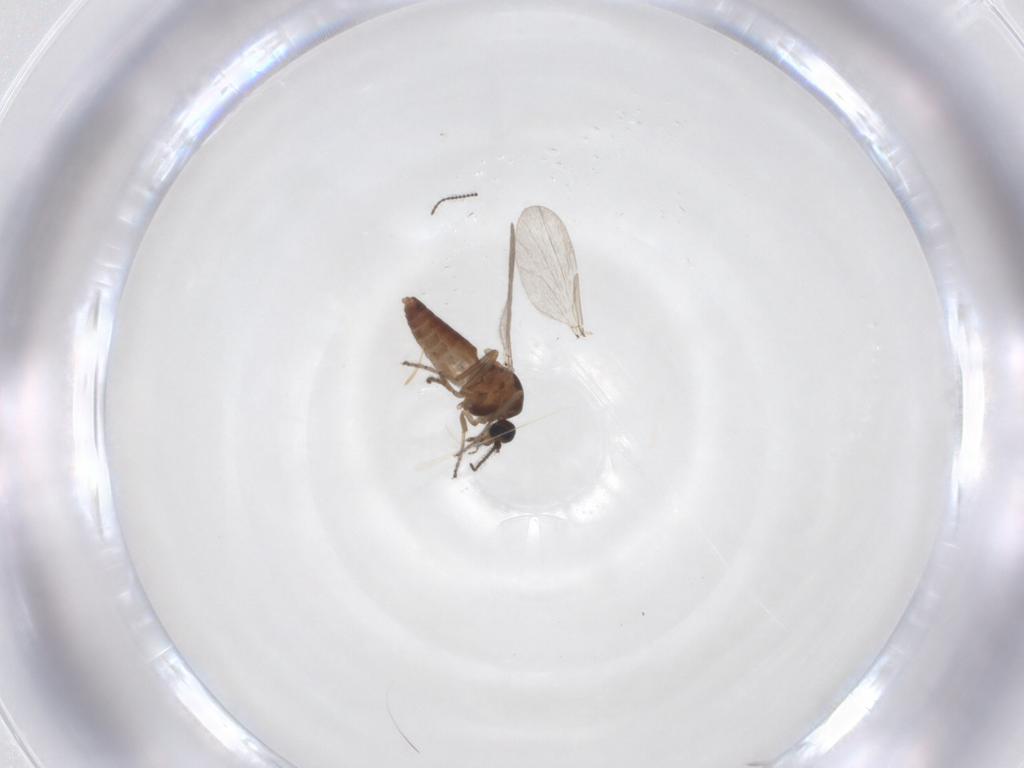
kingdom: Animalia
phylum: Arthropoda
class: Insecta
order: Diptera
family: Ceratopogonidae
